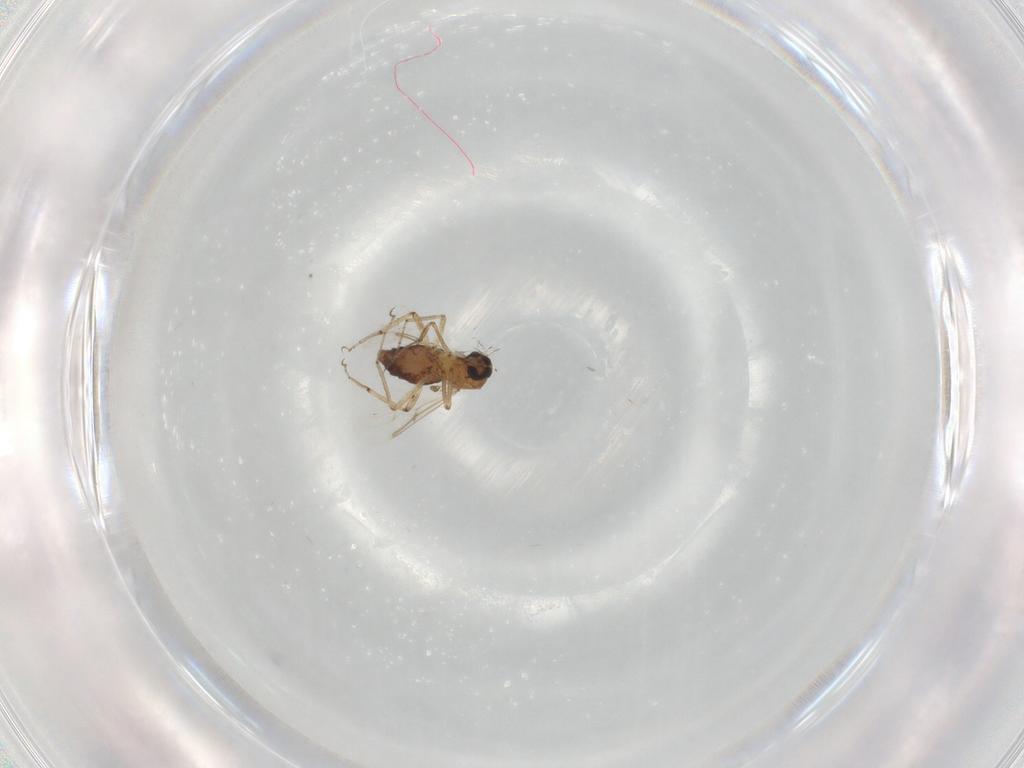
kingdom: Animalia
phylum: Arthropoda
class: Insecta
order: Diptera
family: Ceratopogonidae
